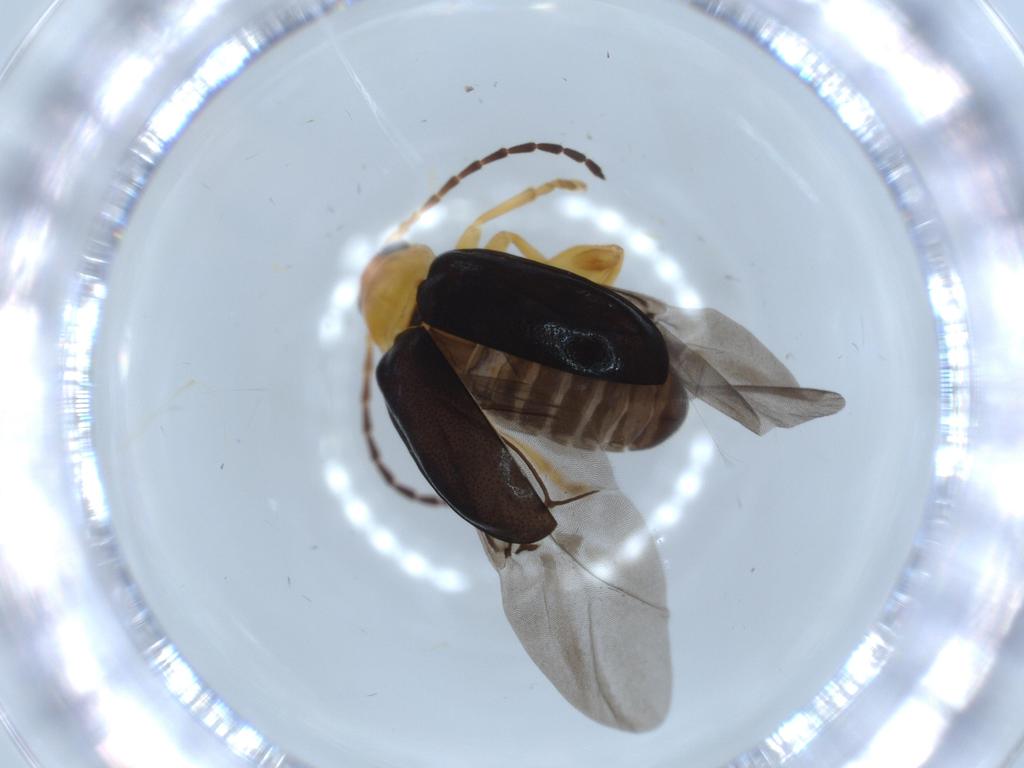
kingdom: Animalia
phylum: Arthropoda
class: Insecta
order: Coleoptera
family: Chrysomelidae
